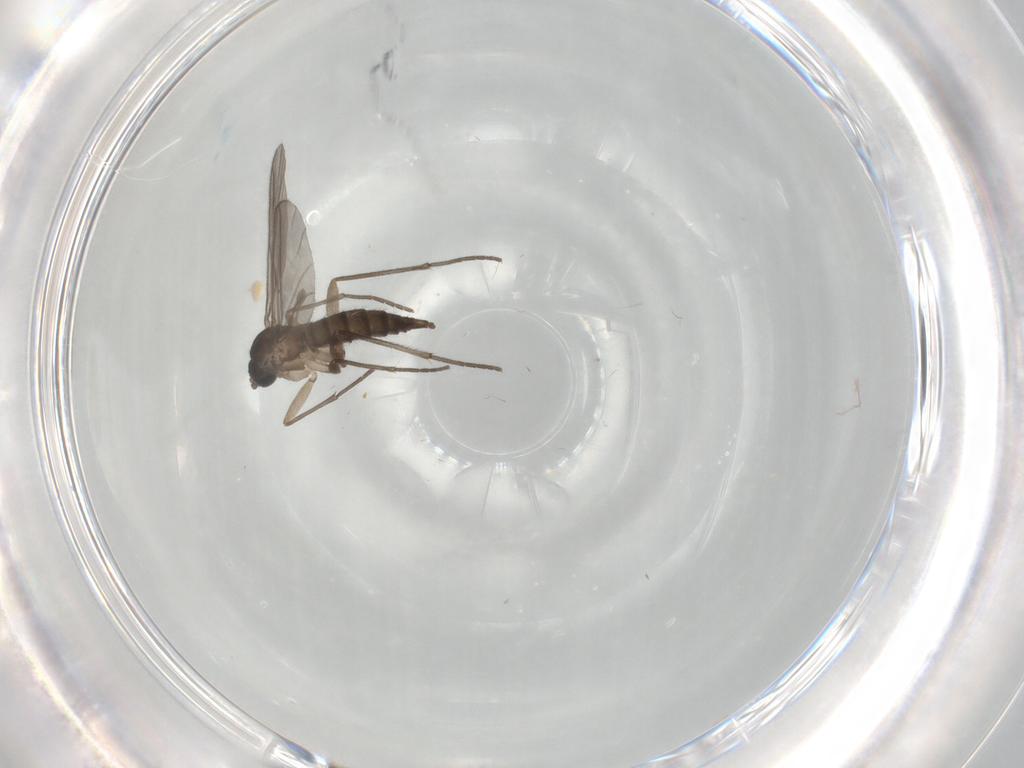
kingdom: Animalia
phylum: Arthropoda
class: Insecta
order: Diptera
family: Sciaridae
